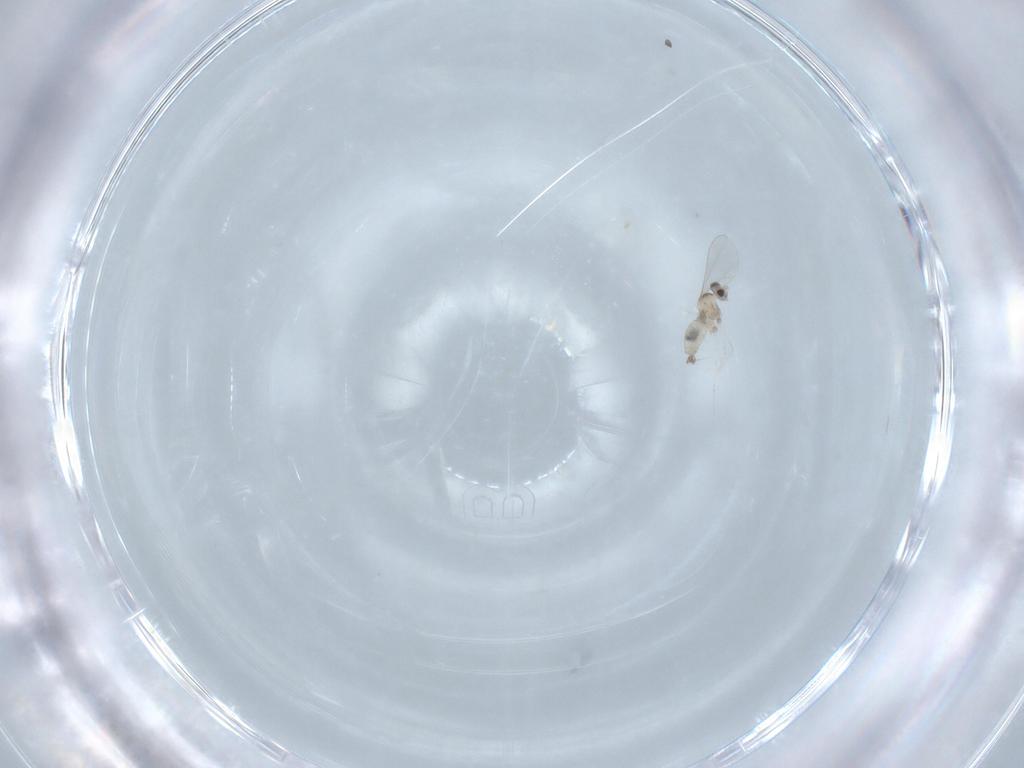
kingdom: Animalia
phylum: Arthropoda
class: Insecta
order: Diptera
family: Cecidomyiidae
